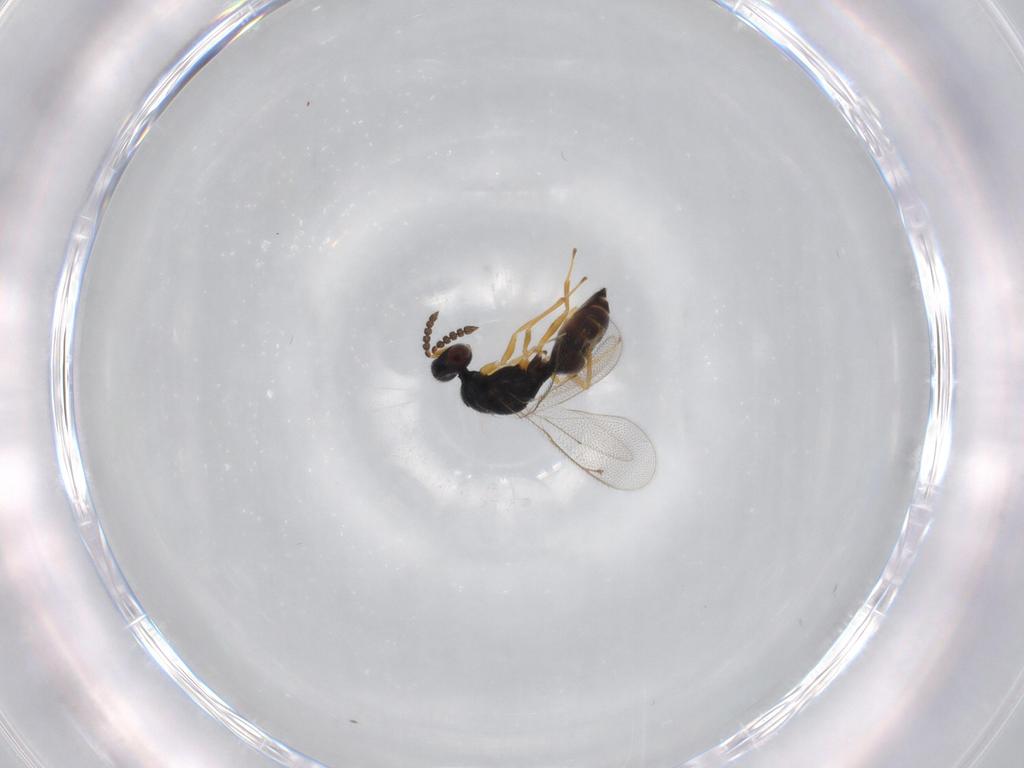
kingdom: Animalia
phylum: Arthropoda
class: Insecta
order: Hymenoptera
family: Eulophidae
